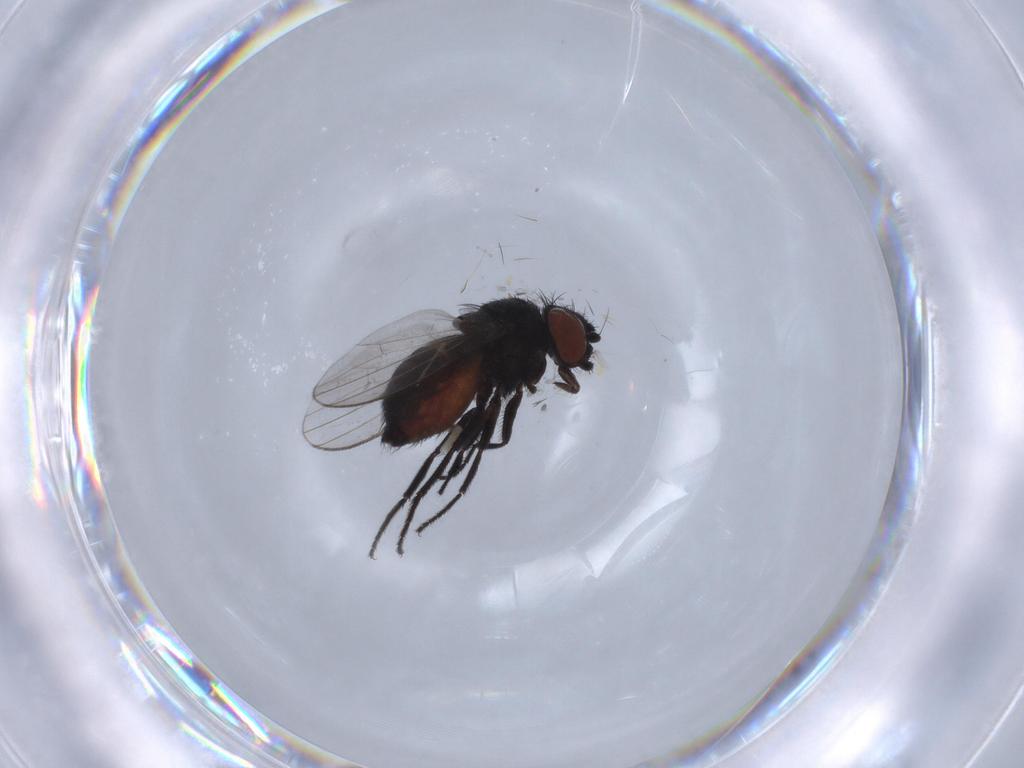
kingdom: Animalia
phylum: Arthropoda
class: Insecta
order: Diptera
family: Milichiidae
